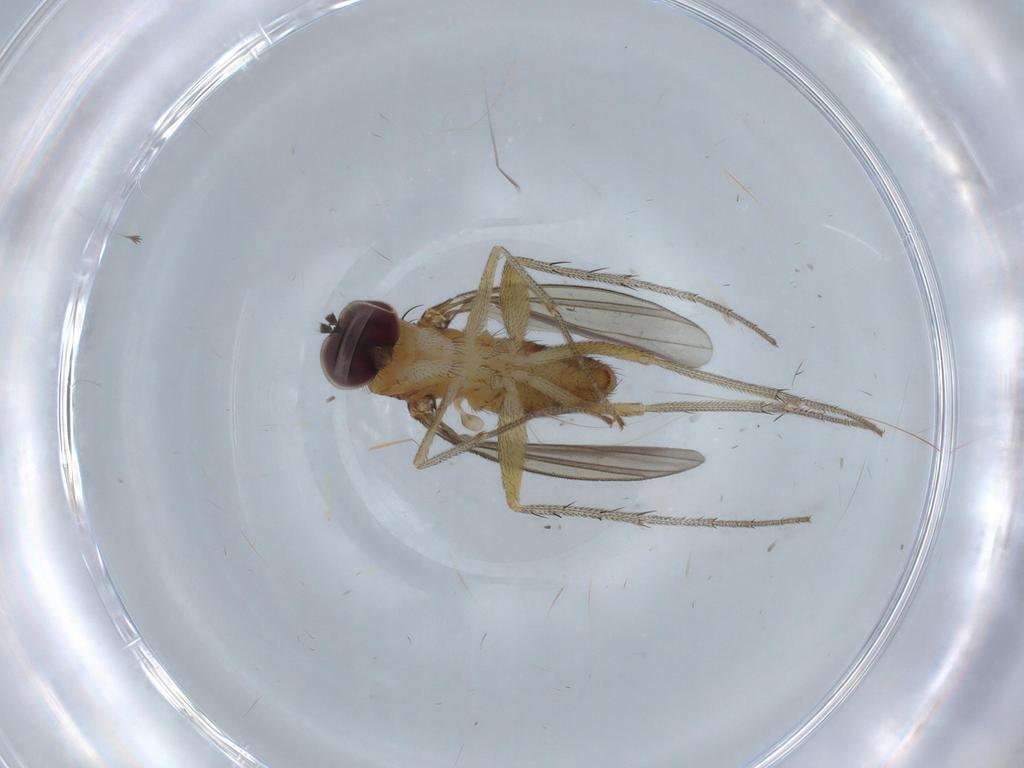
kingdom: Animalia
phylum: Arthropoda
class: Insecta
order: Diptera
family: Dolichopodidae
